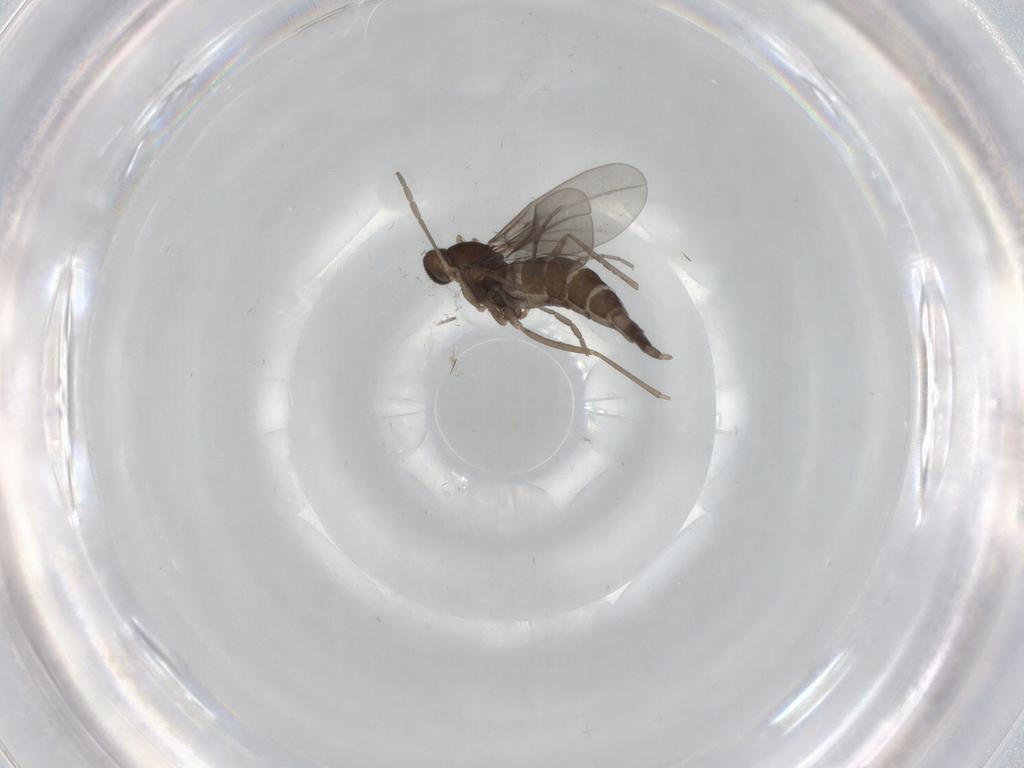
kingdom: Animalia
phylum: Arthropoda
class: Insecta
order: Diptera
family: Cecidomyiidae
